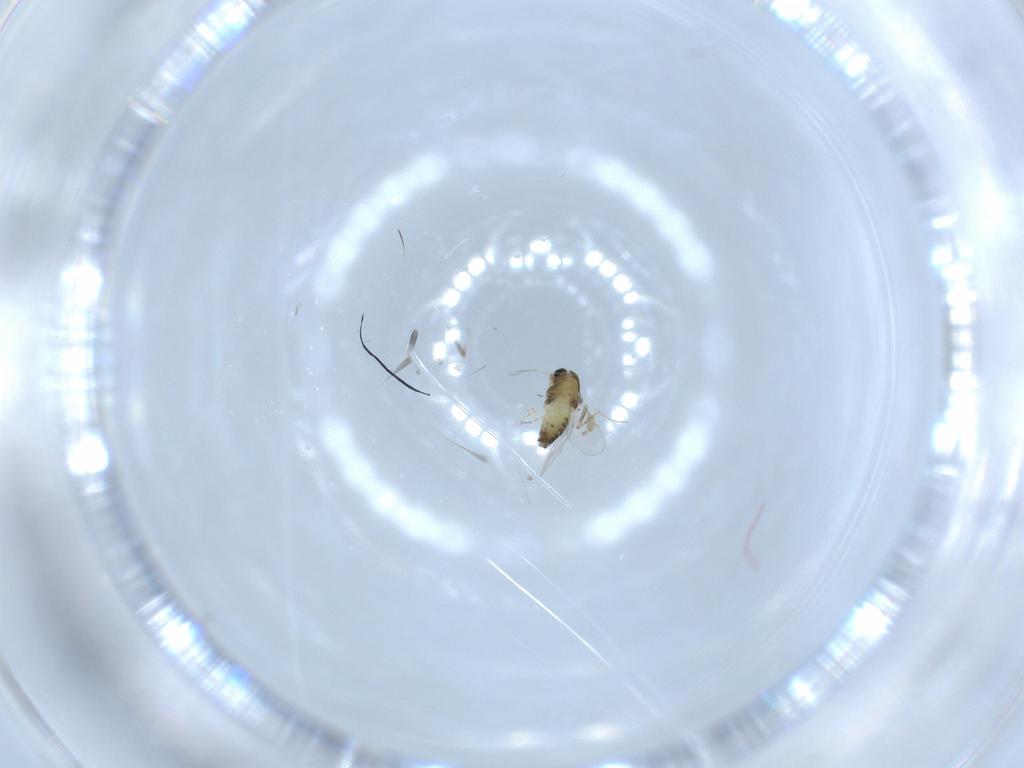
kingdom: Animalia
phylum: Arthropoda
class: Insecta
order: Diptera
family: Chironomidae
